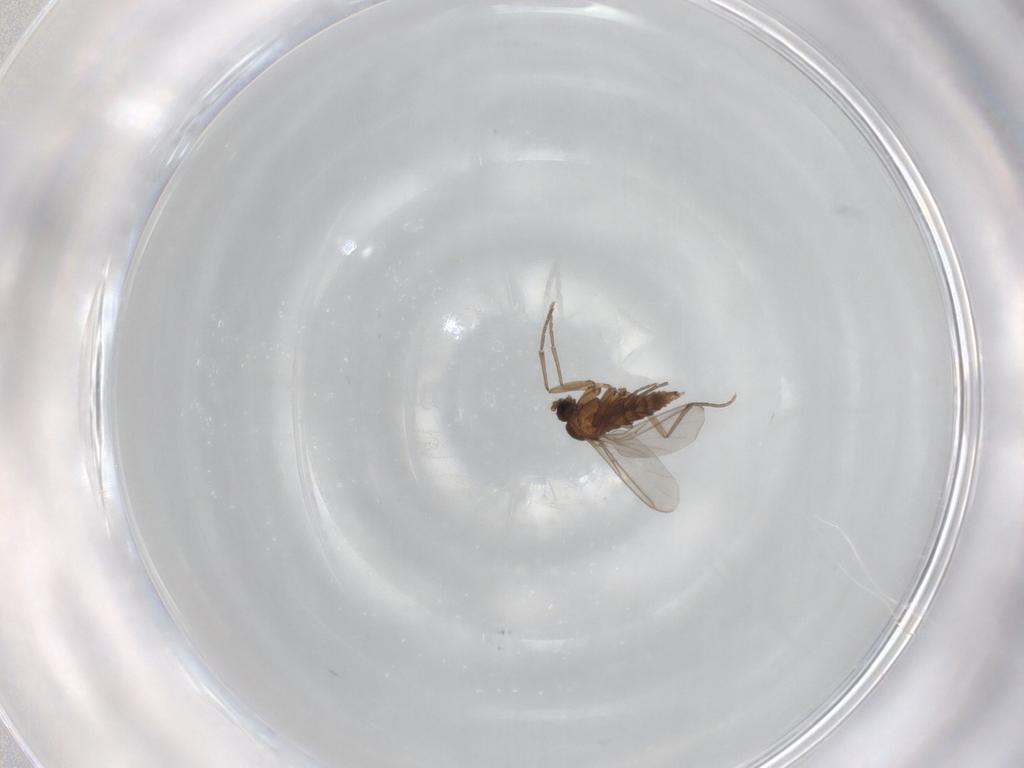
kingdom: Animalia
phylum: Arthropoda
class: Insecta
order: Diptera
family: Sciaridae
